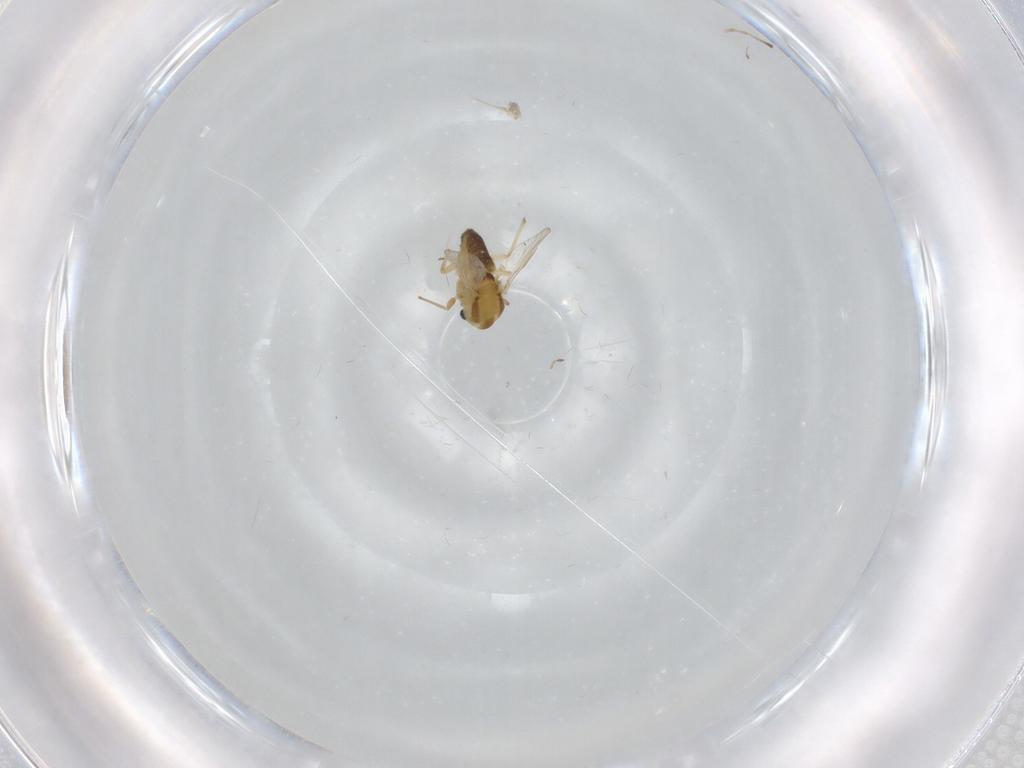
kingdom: Animalia
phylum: Arthropoda
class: Insecta
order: Diptera
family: Chironomidae
